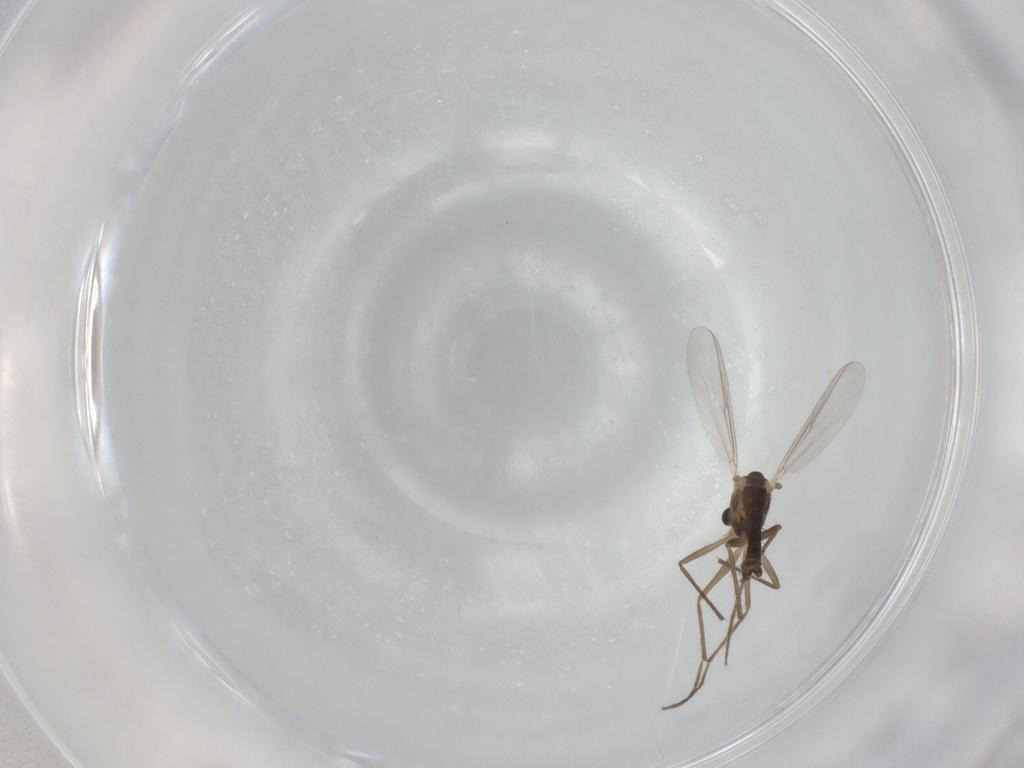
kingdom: Animalia
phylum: Arthropoda
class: Insecta
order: Diptera
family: Chironomidae
